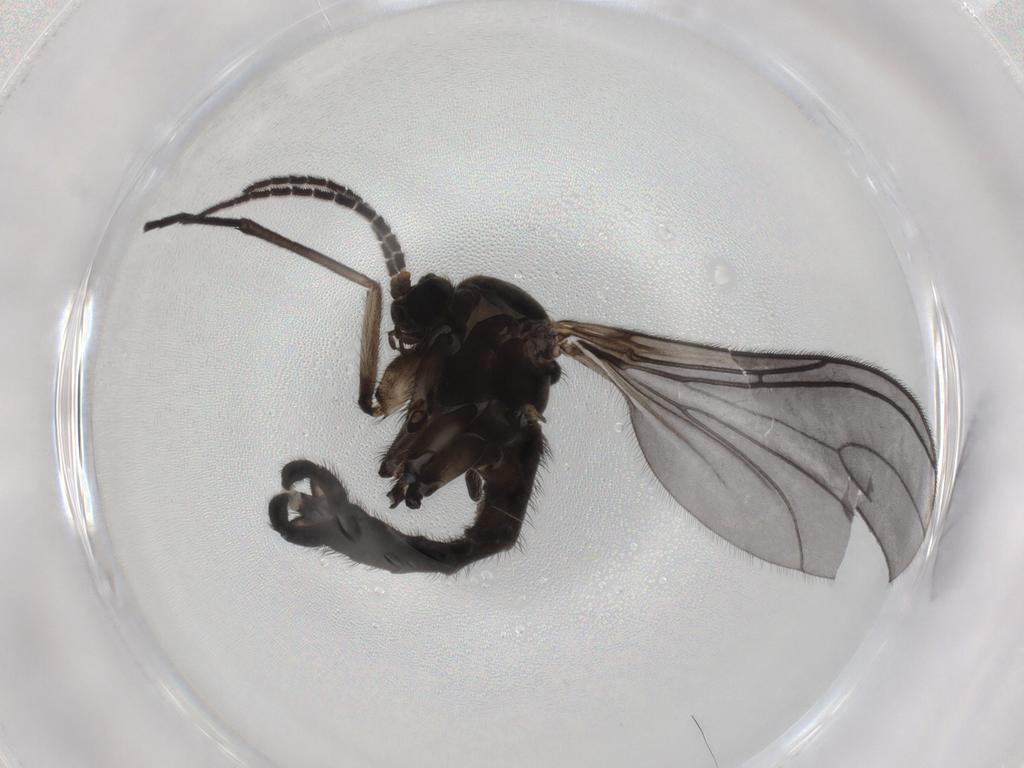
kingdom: Animalia
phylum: Arthropoda
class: Insecta
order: Diptera
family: Sciaridae
